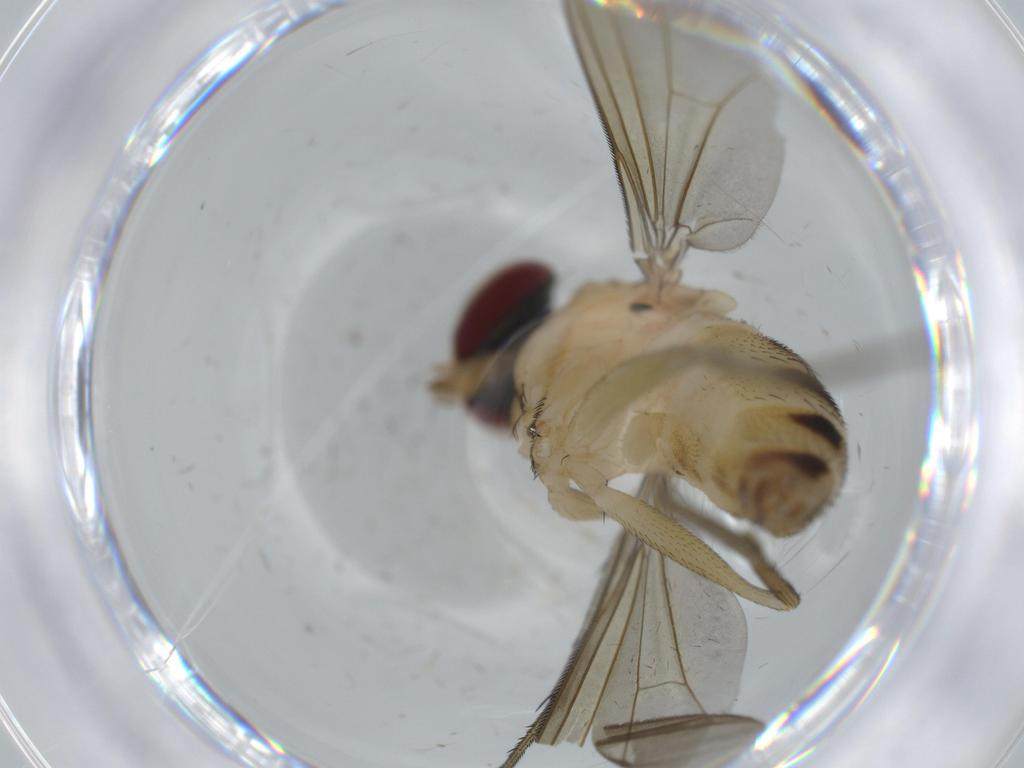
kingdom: Animalia
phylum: Arthropoda
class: Insecta
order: Diptera
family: Dolichopodidae
